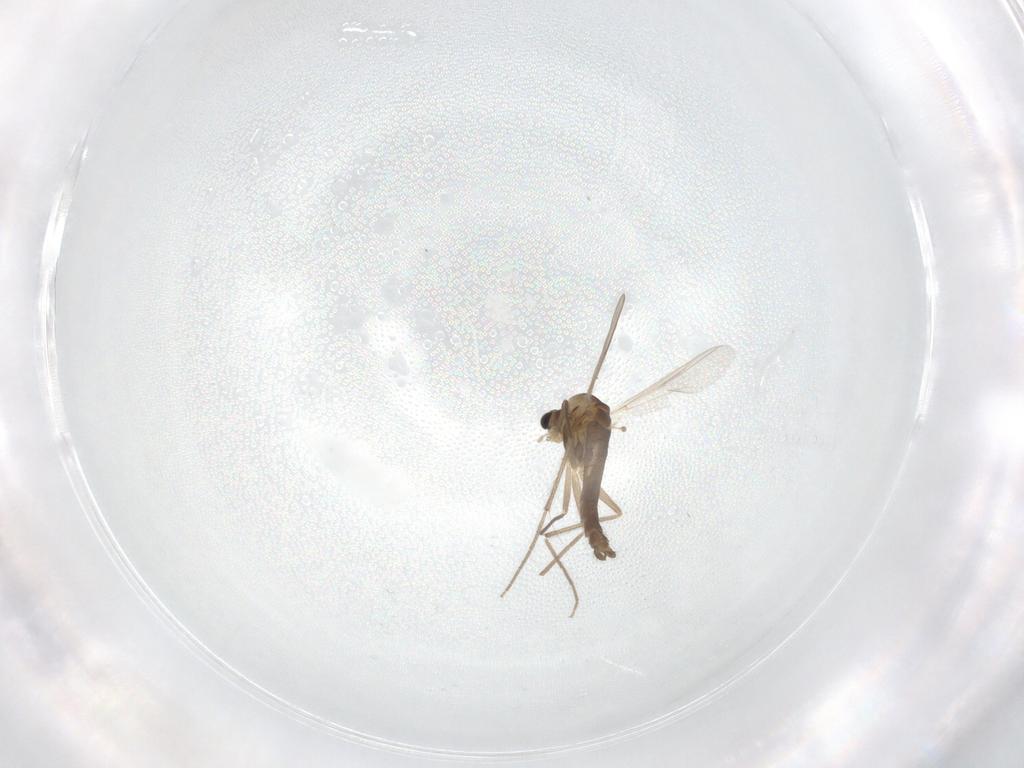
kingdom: Animalia
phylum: Arthropoda
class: Insecta
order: Diptera
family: Chironomidae
